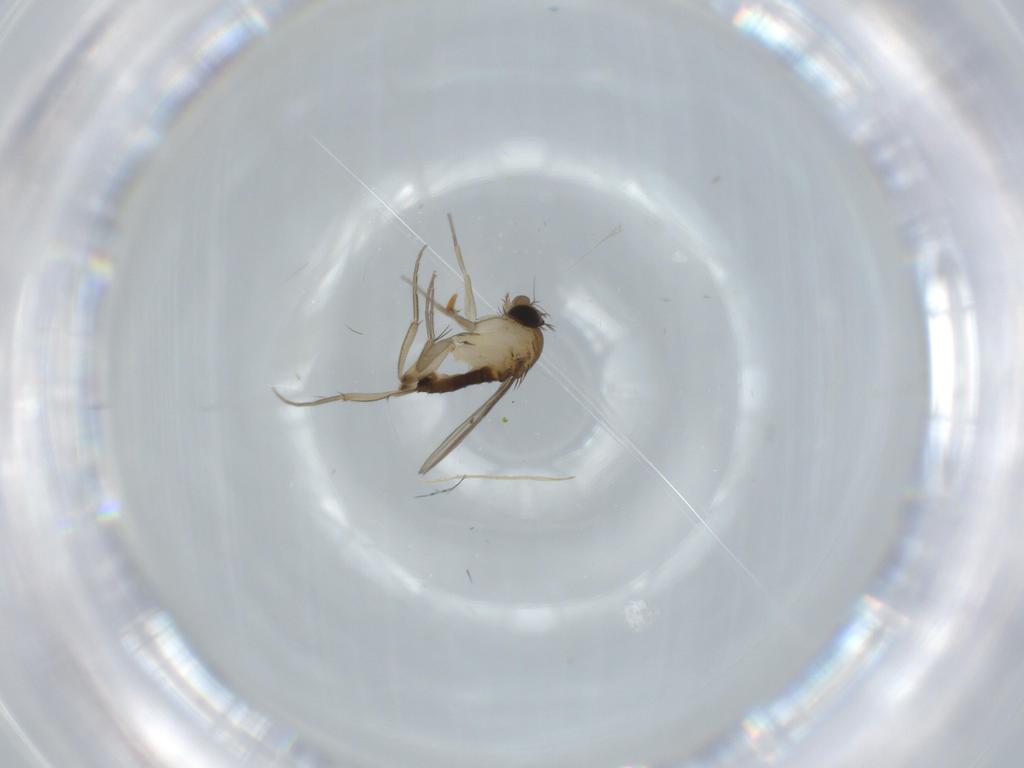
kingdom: Animalia
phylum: Arthropoda
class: Insecta
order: Diptera
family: Phoridae
